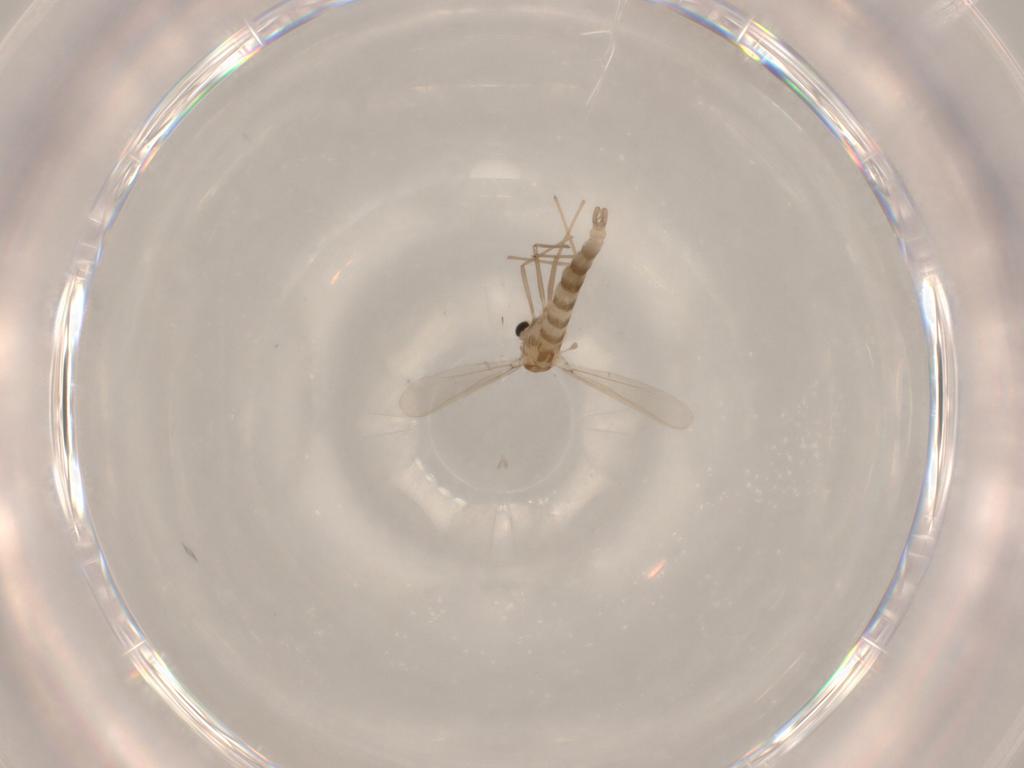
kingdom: Animalia
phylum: Arthropoda
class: Insecta
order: Diptera
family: Chironomidae
